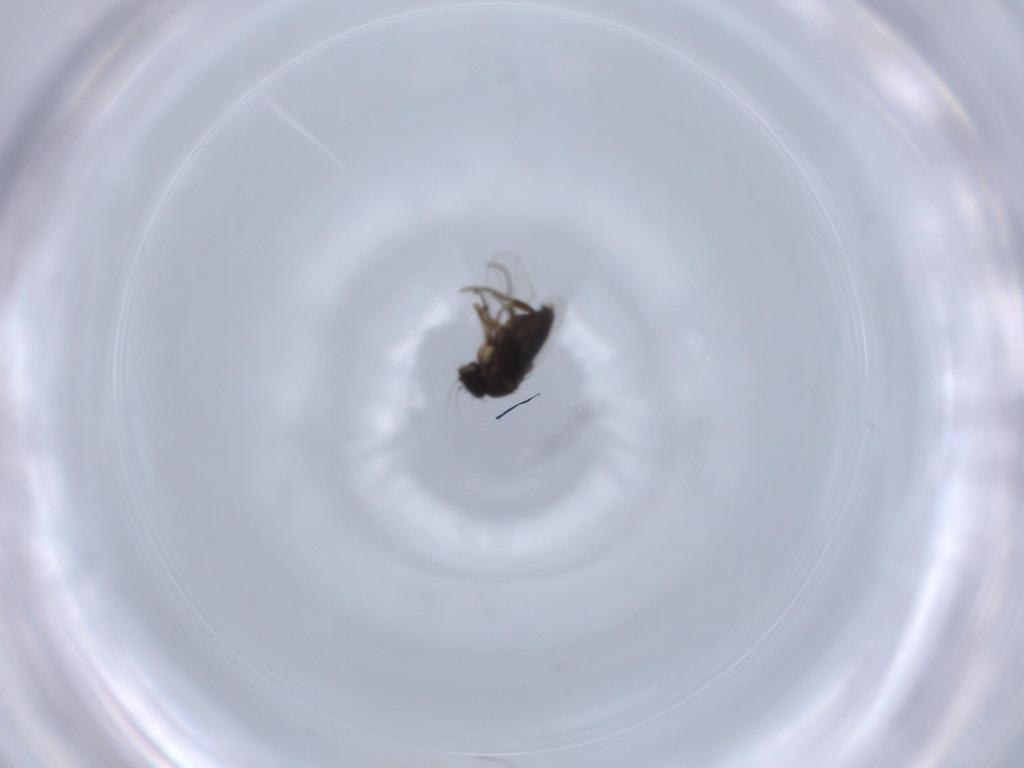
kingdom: Animalia
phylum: Arthropoda
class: Insecta
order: Diptera
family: Phoridae
